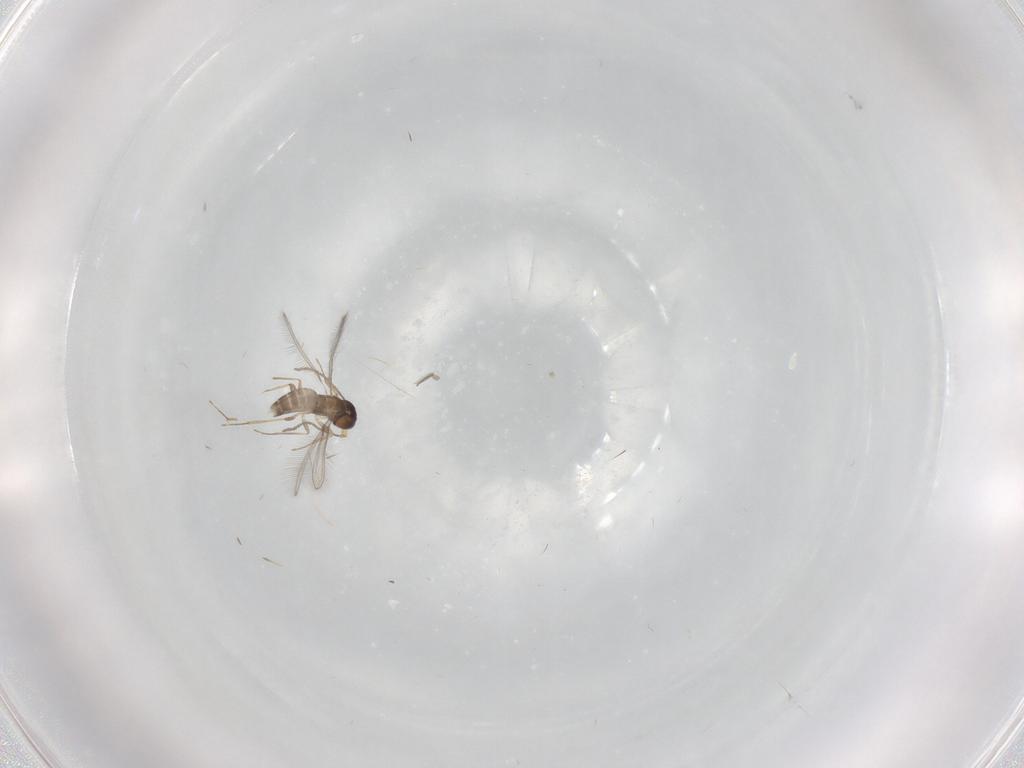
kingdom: Animalia
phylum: Arthropoda
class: Insecta
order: Hymenoptera
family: Mymaridae
